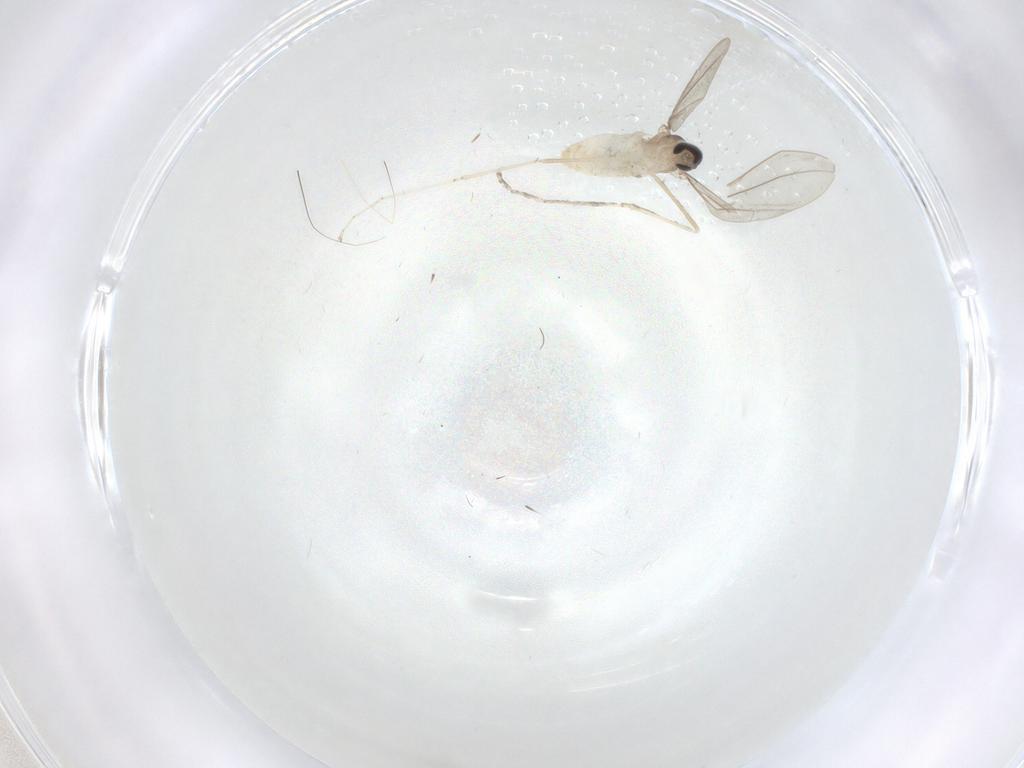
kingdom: Animalia
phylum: Arthropoda
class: Insecta
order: Diptera
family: Cecidomyiidae
